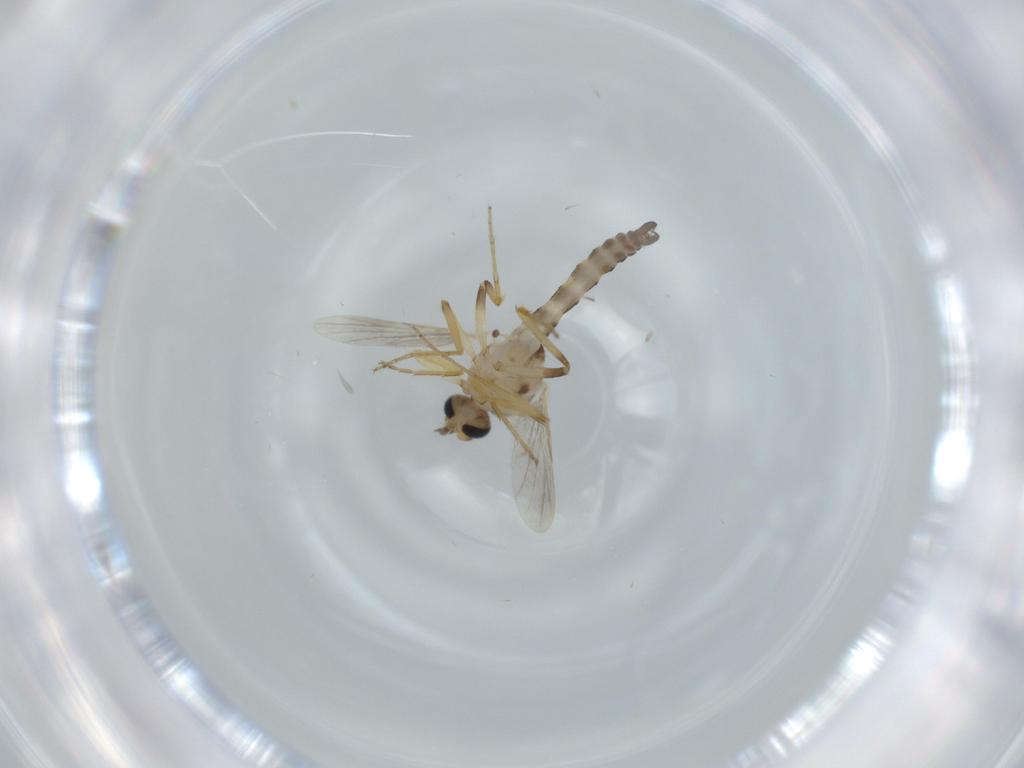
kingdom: Animalia
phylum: Arthropoda
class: Insecta
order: Diptera
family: Ceratopogonidae
